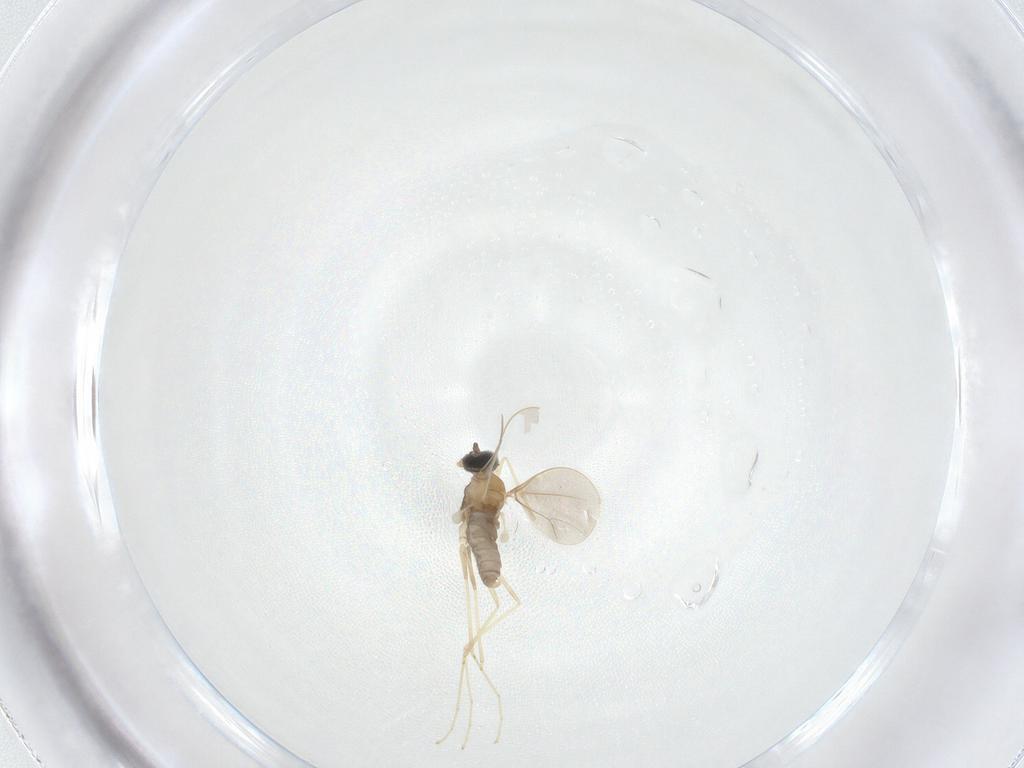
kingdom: Animalia
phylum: Arthropoda
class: Insecta
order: Diptera
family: Cecidomyiidae
